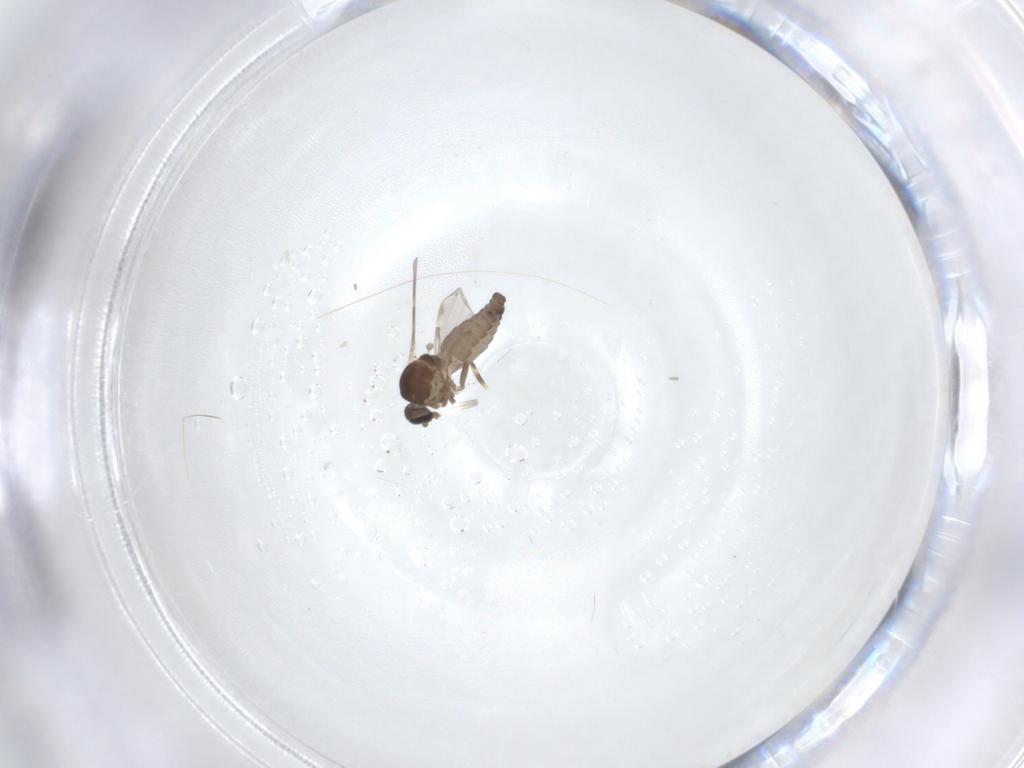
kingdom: Animalia
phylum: Arthropoda
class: Insecta
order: Diptera
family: Ceratopogonidae
